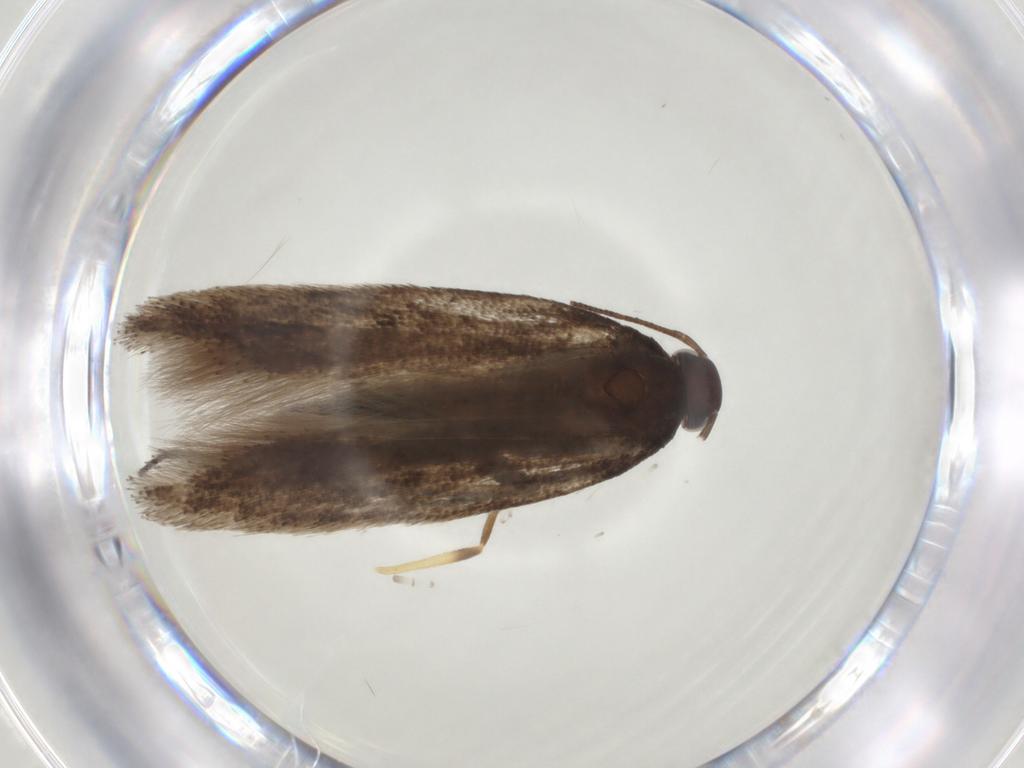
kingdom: Animalia
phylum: Arthropoda
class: Insecta
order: Lepidoptera
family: Gelechiidae
